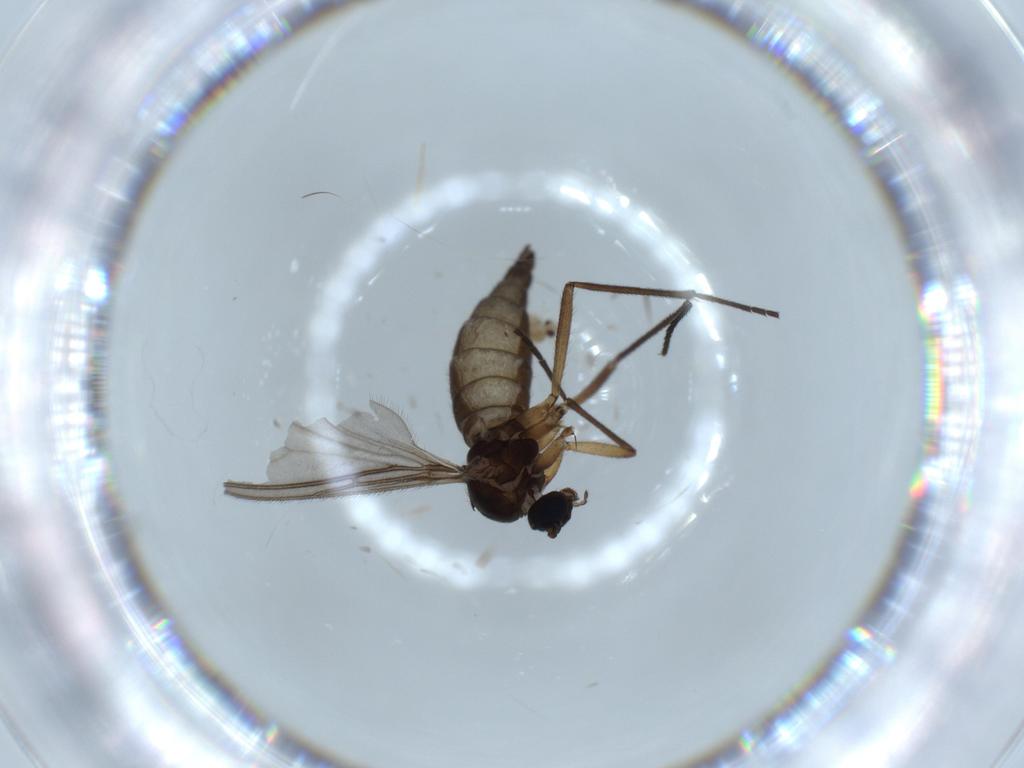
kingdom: Animalia
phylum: Arthropoda
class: Insecta
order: Diptera
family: Sciaridae
